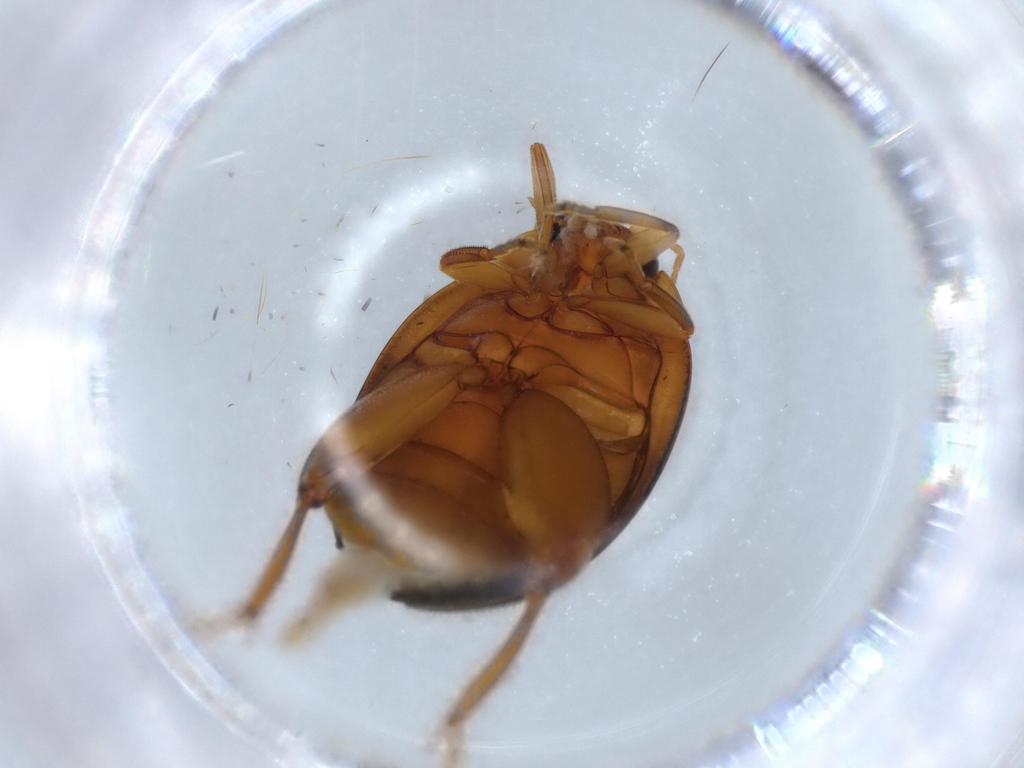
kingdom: Animalia
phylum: Arthropoda
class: Insecta
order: Coleoptera
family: Scirtidae
